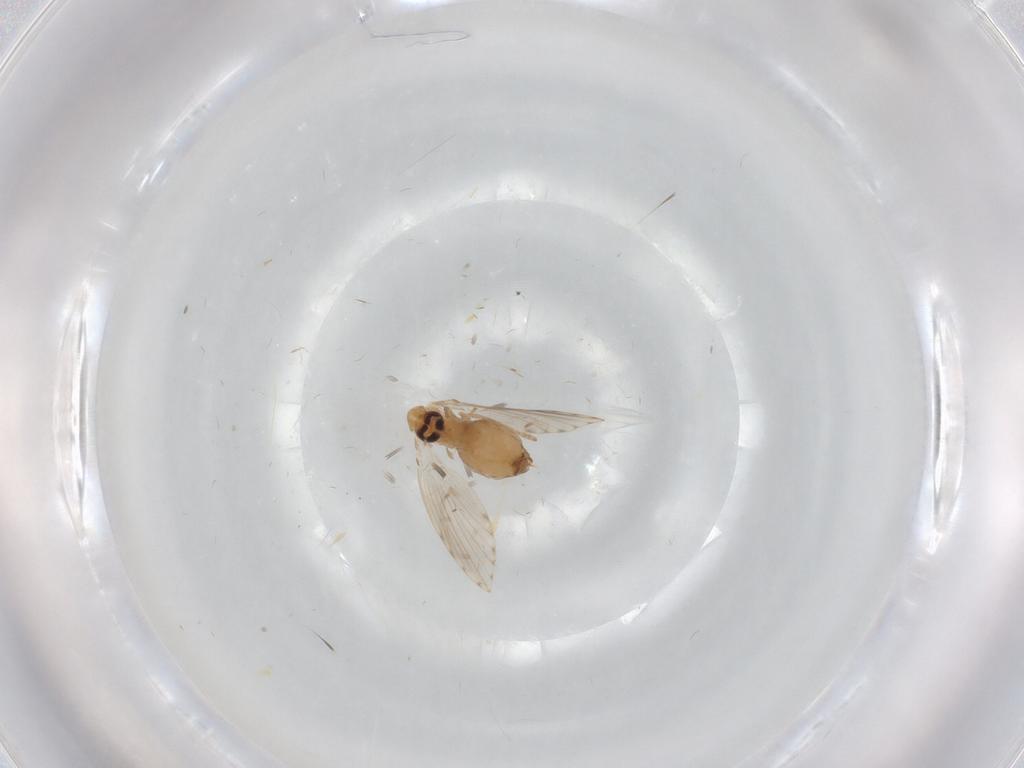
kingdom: Animalia
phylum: Arthropoda
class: Insecta
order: Diptera
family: Psychodidae
